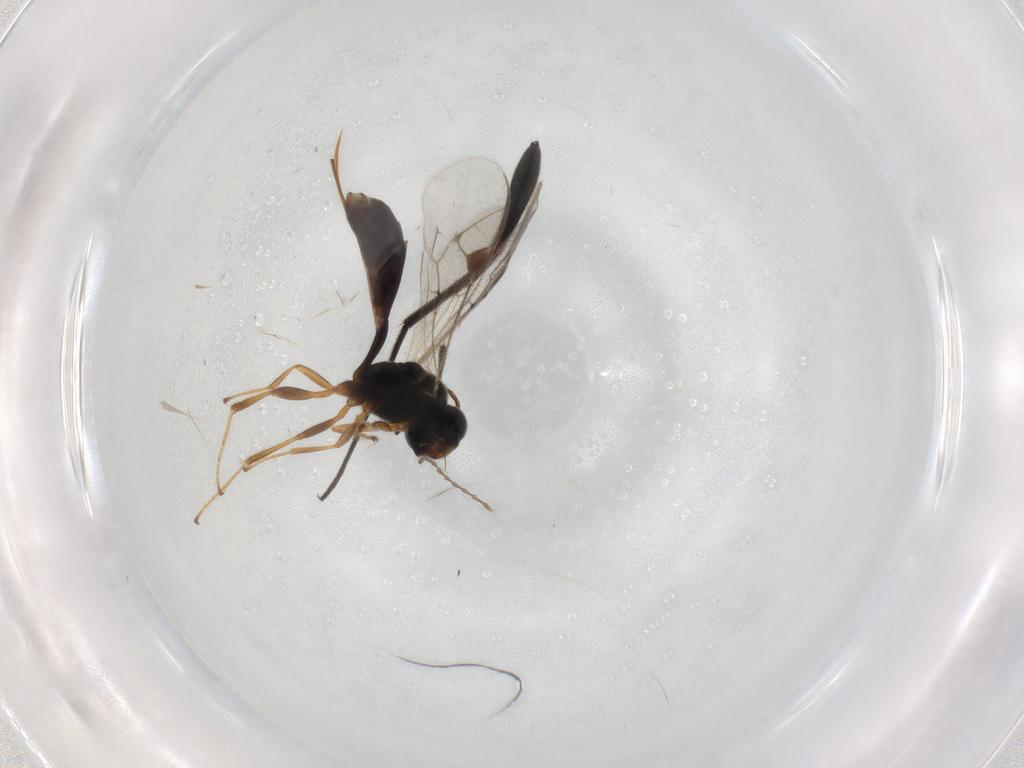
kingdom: Animalia
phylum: Arthropoda
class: Insecta
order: Hymenoptera
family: Ichneumonidae
